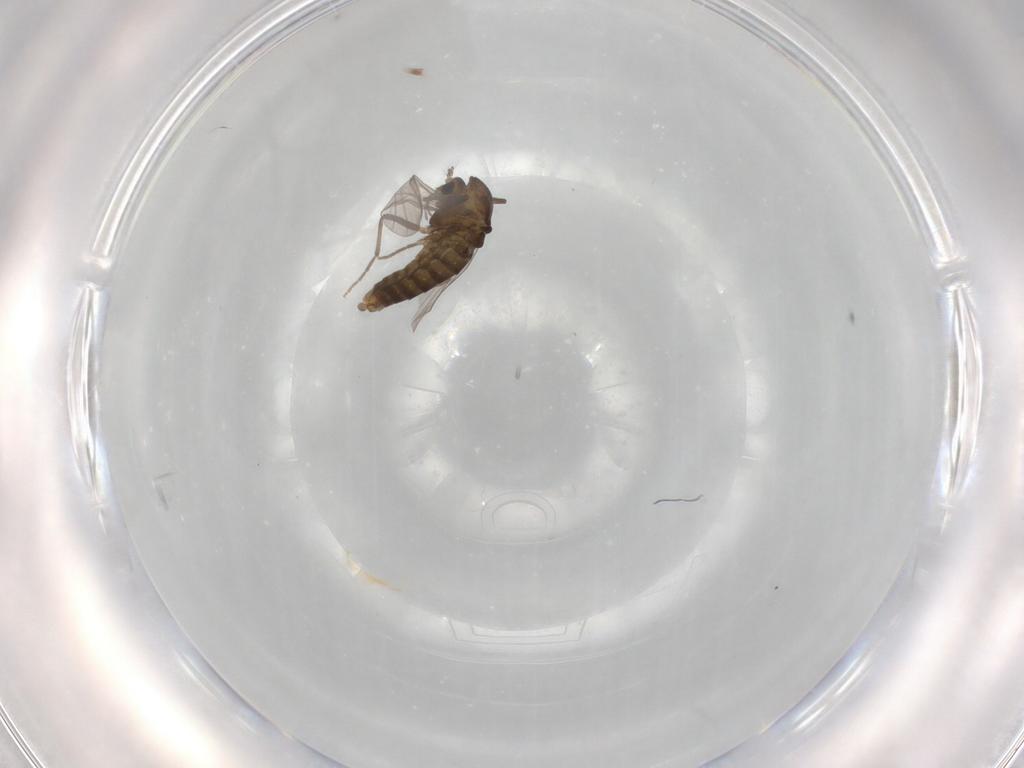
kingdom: Animalia
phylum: Arthropoda
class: Insecta
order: Diptera
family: Chironomidae
